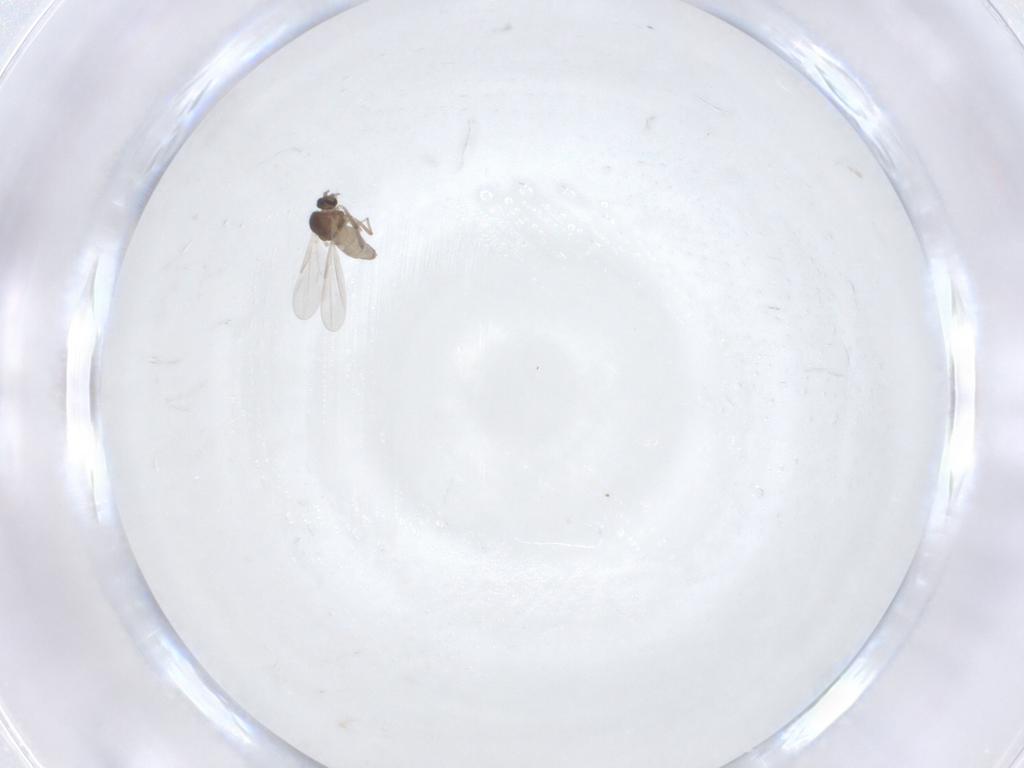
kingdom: Animalia
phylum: Arthropoda
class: Insecta
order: Diptera
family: Ceratopogonidae
